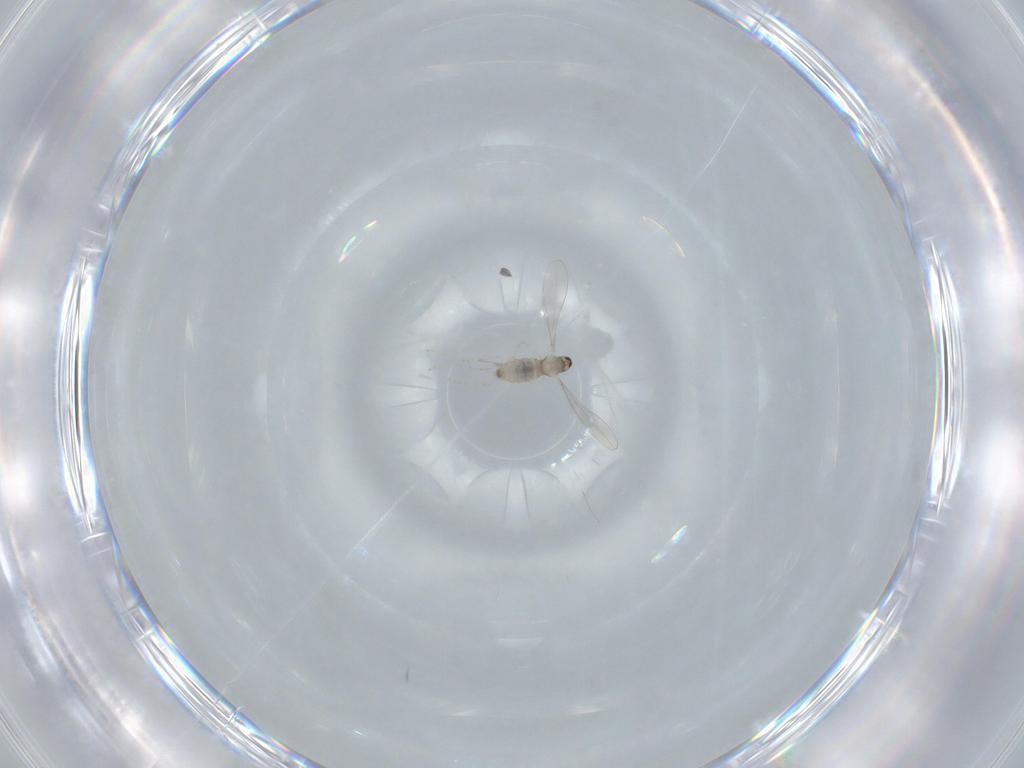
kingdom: Animalia
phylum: Arthropoda
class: Insecta
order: Diptera
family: Cecidomyiidae
